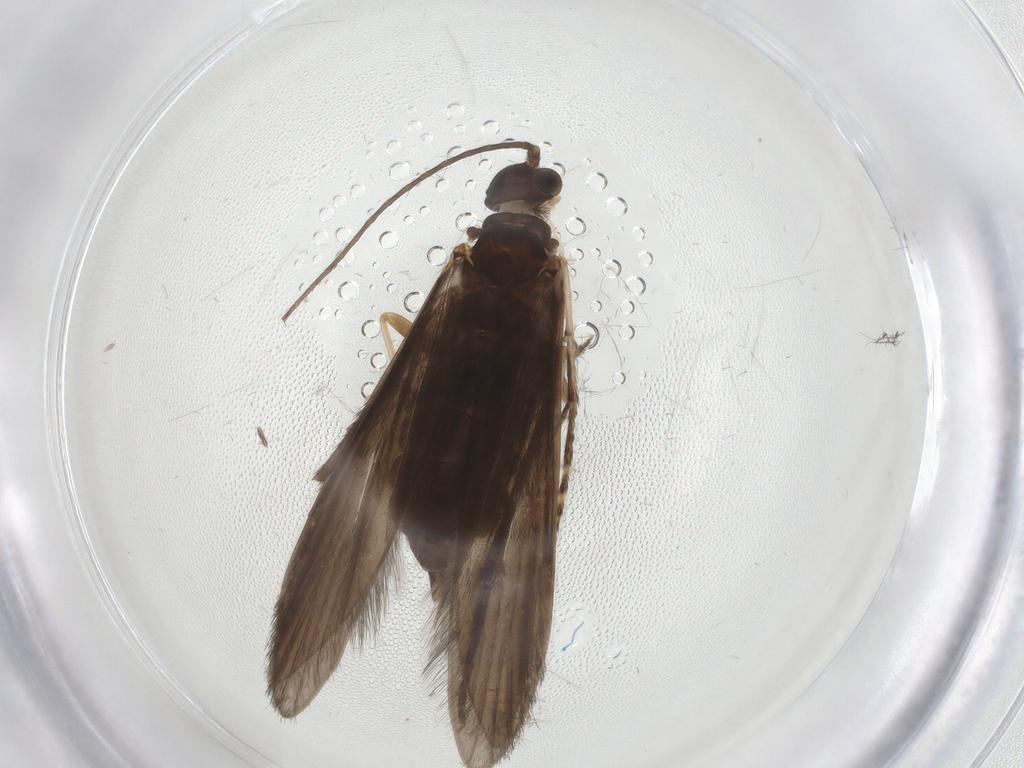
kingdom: Animalia
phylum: Arthropoda
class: Insecta
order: Trichoptera
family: Xiphocentronidae
